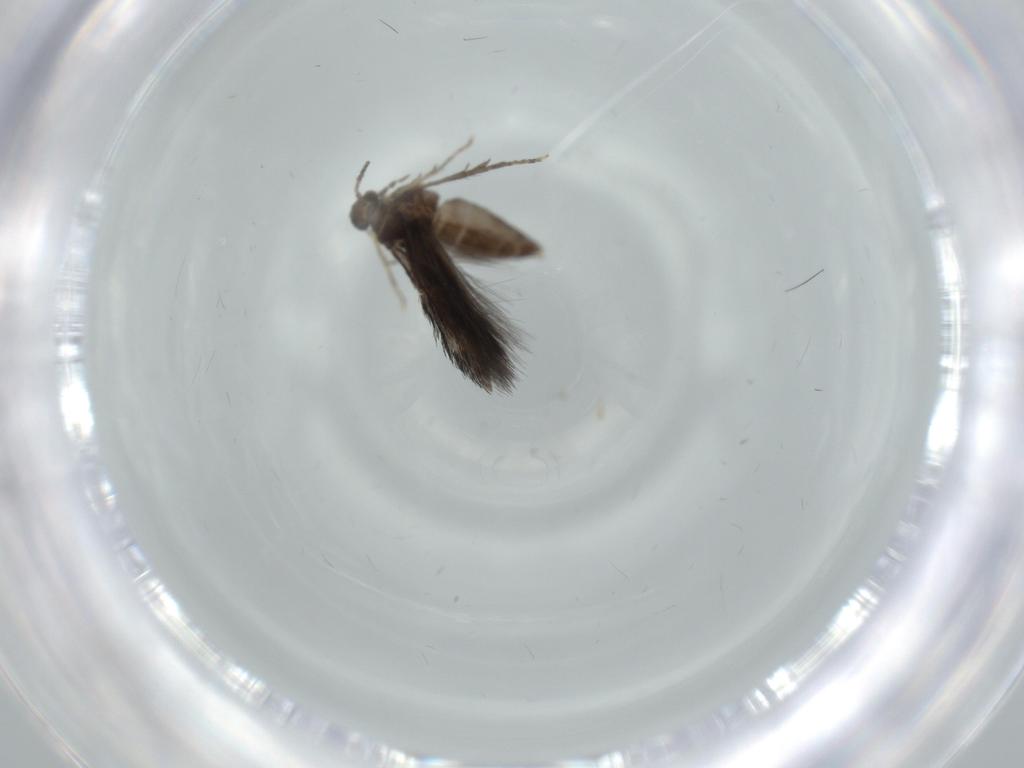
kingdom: Animalia
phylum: Arthropoda
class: Insecta
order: Trichoptera
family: Hydroptilidae
